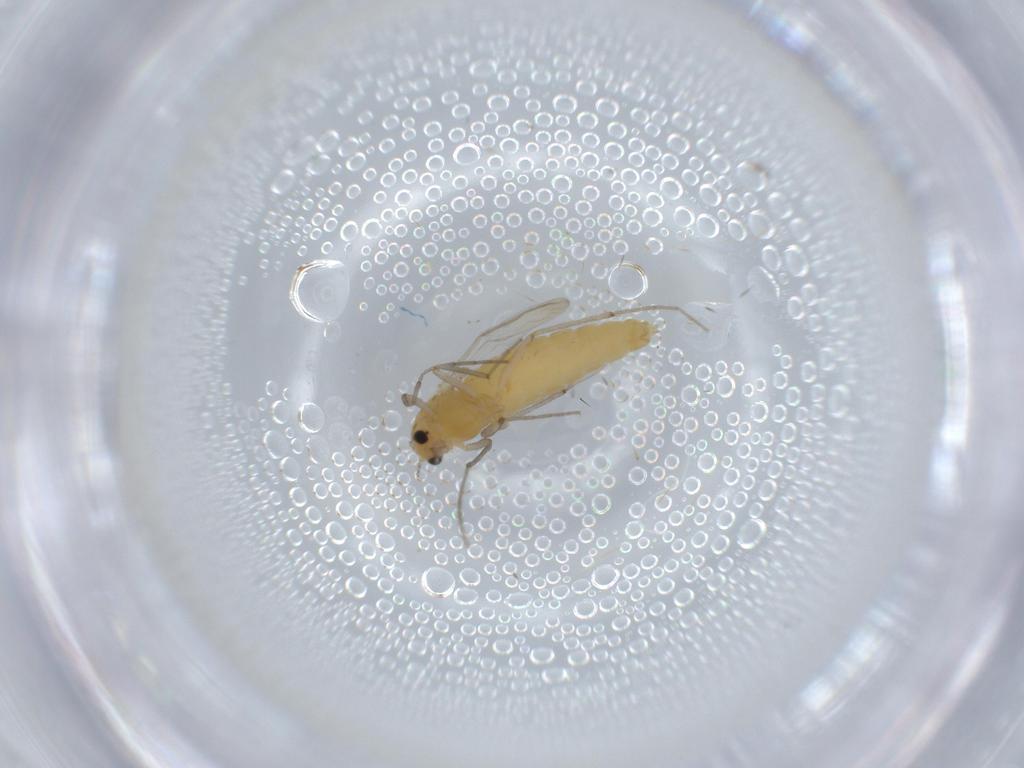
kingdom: Animalia
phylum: Arthropoda
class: Insecta
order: Diptera
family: Chironomidae
